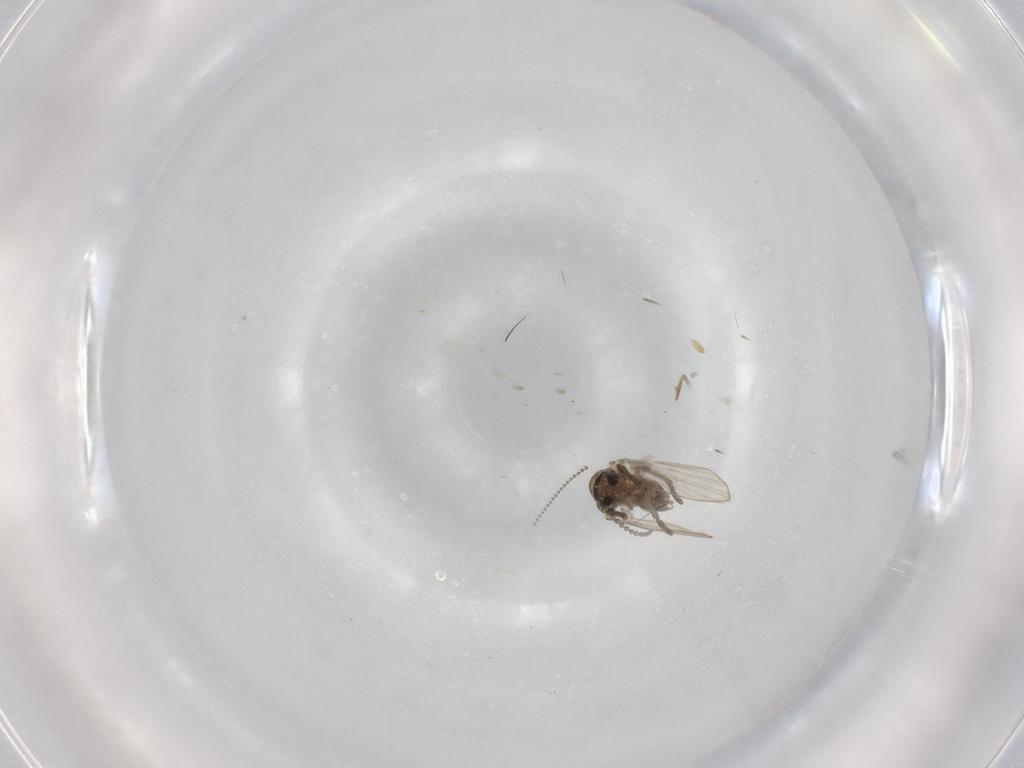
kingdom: Animalia
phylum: Arthropoda
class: Insecta
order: Diptera
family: Psychodidae
